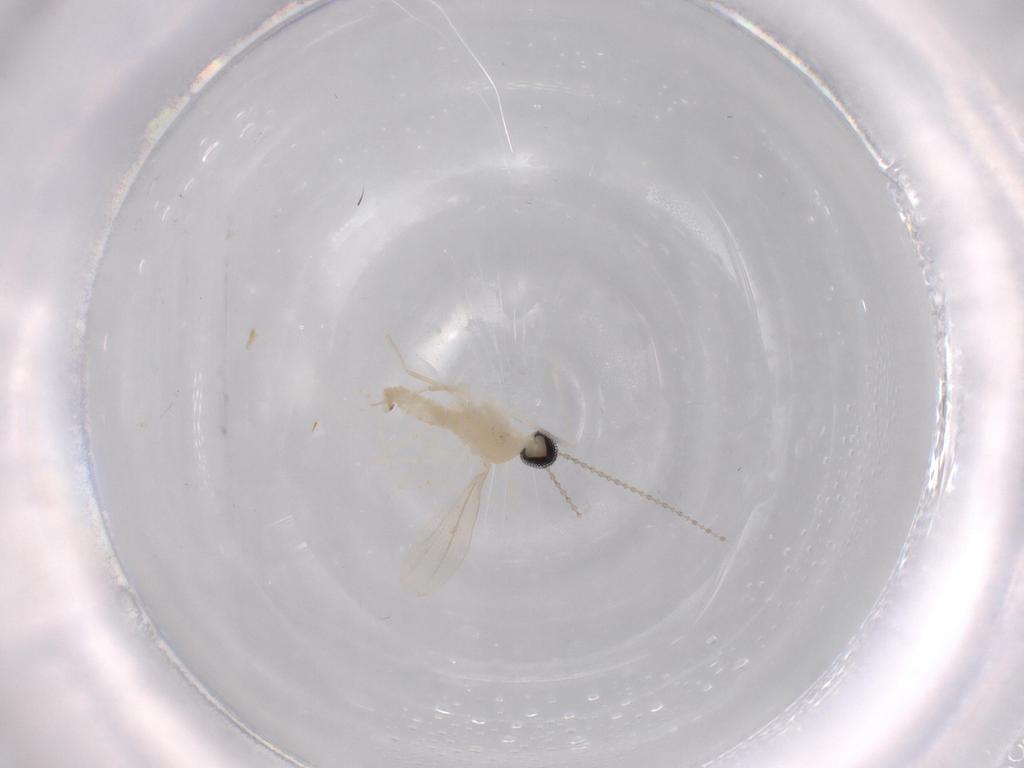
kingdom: Animalia
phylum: Arthropoda
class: Insecta
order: Diptera
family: Cecidomyiidae
